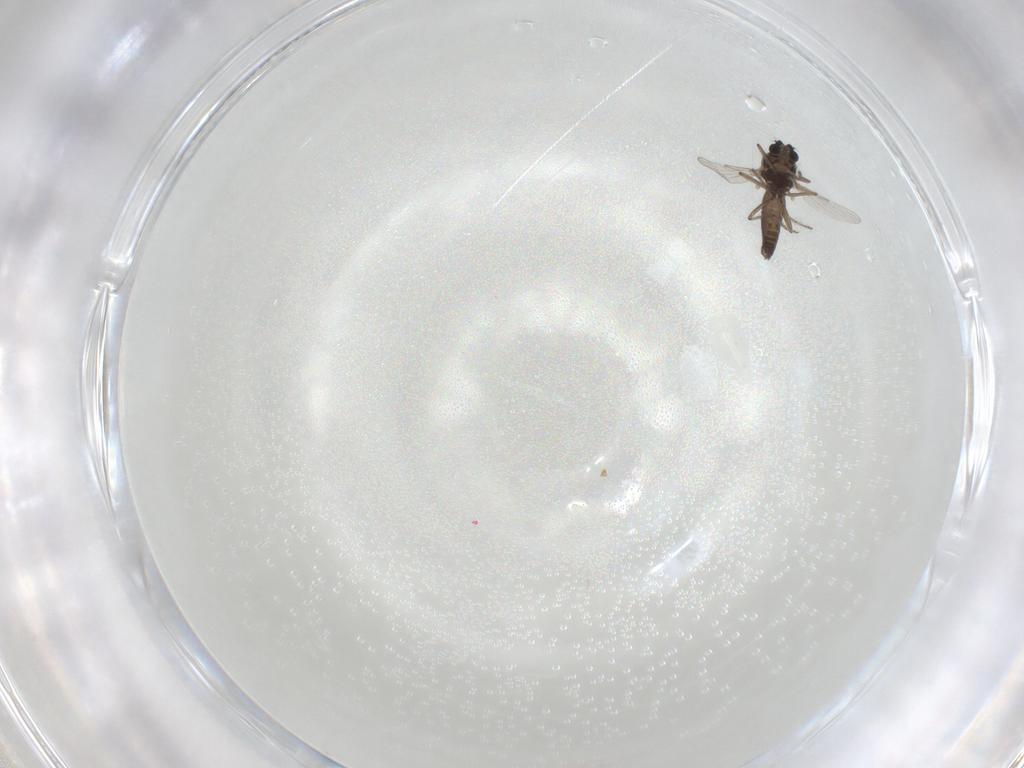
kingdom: Animalia
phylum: Arthropoda
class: Insecta
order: Diptera
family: Ceratopogonidae
